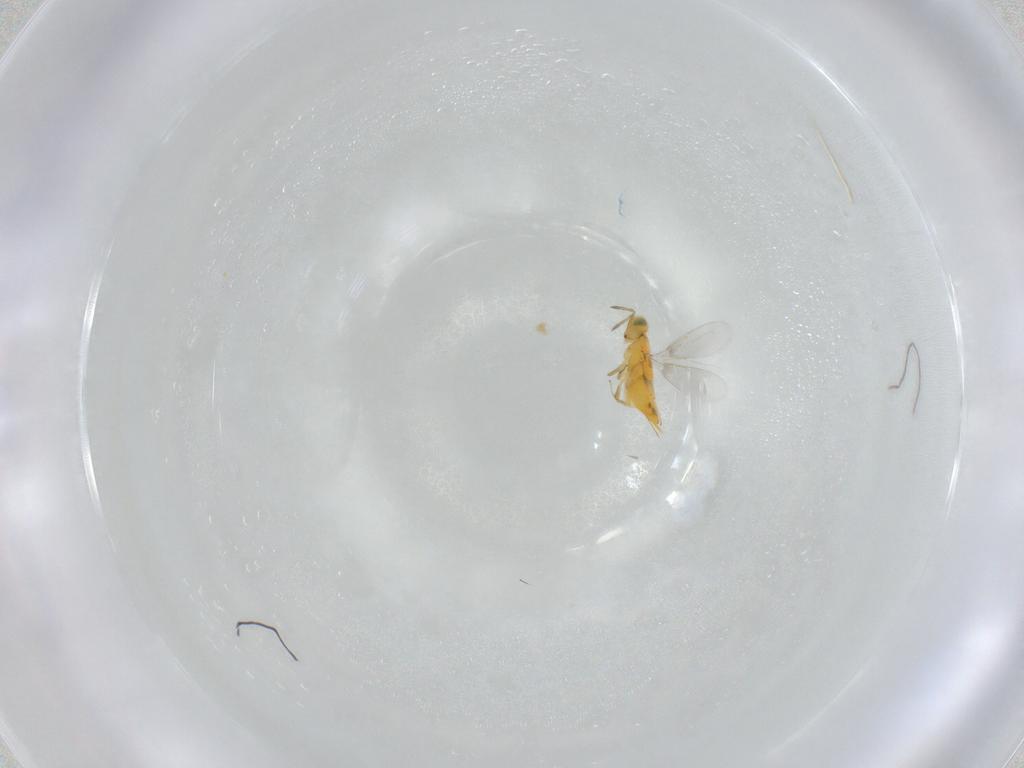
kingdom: Animalia
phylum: Arthropoda
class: Insecta
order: Hymenoptera
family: Aphelinidae
